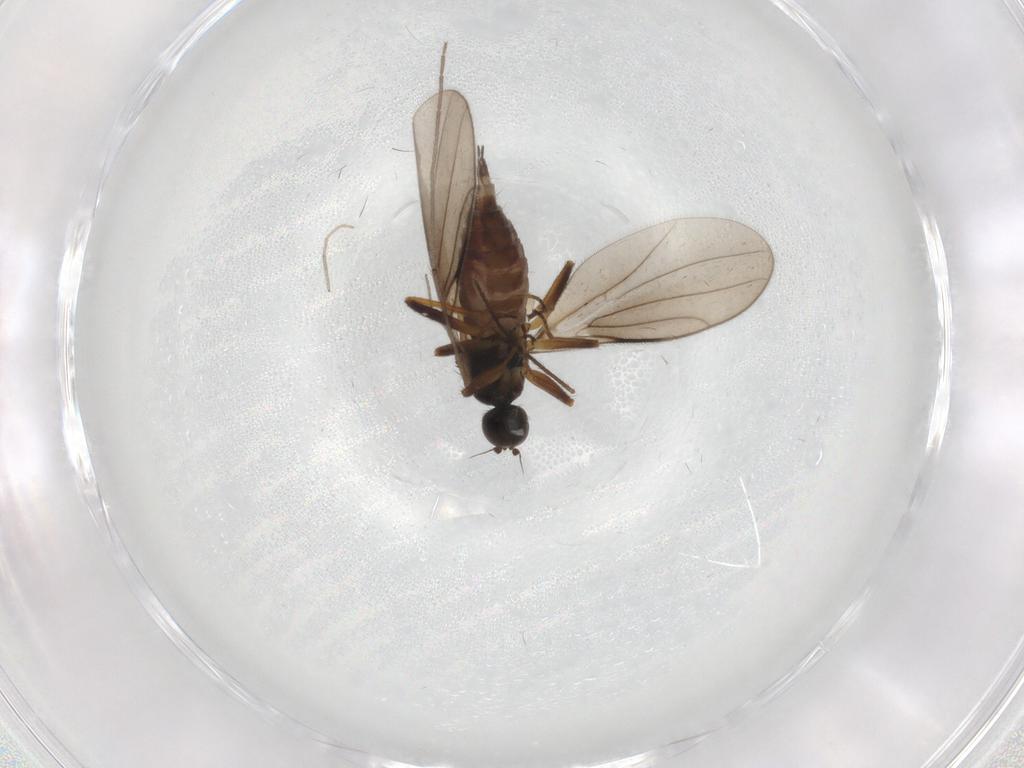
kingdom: Animalia
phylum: Arthropoda
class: Insecta
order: Diptera
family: Hybotidae
